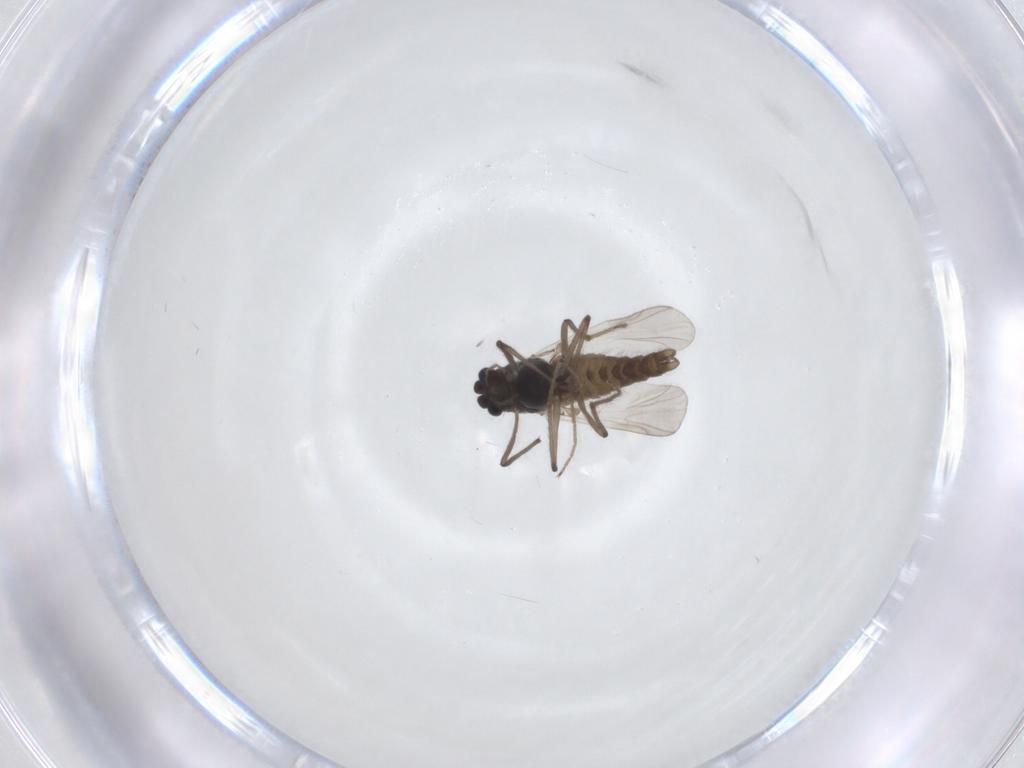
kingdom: Animalia
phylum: Arthropoda
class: Insecta
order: Diptera
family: Chironomidae
